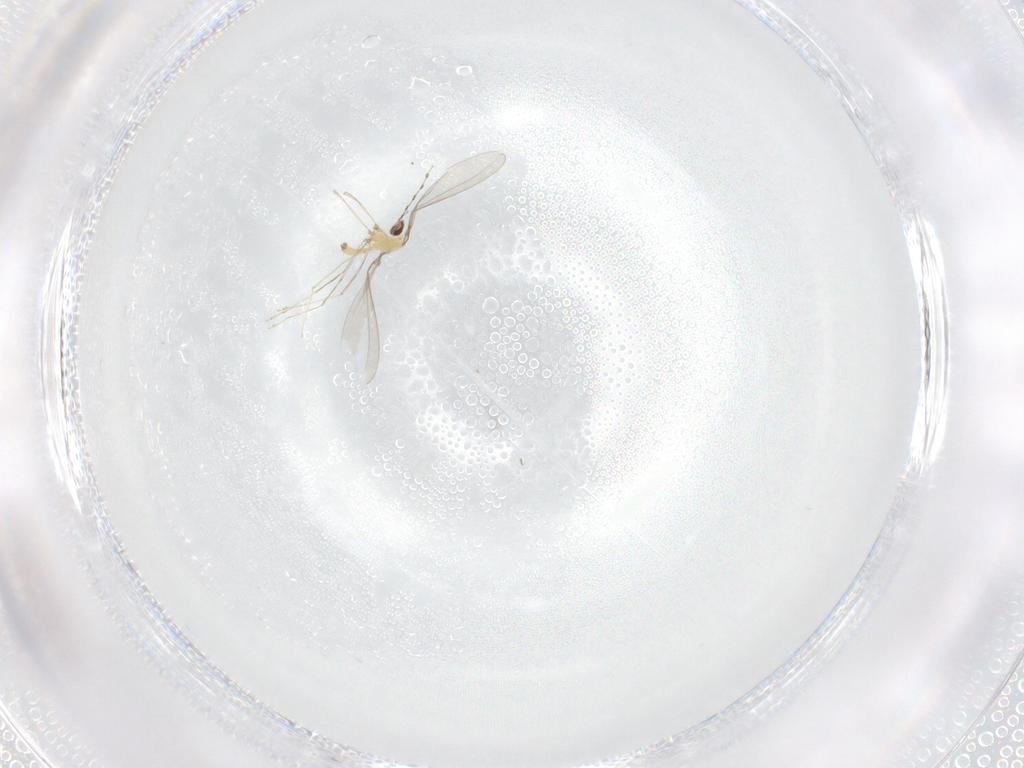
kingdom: Animalia
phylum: Arthropoda
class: Insecta
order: Diptera
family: Cecidomyiidae
